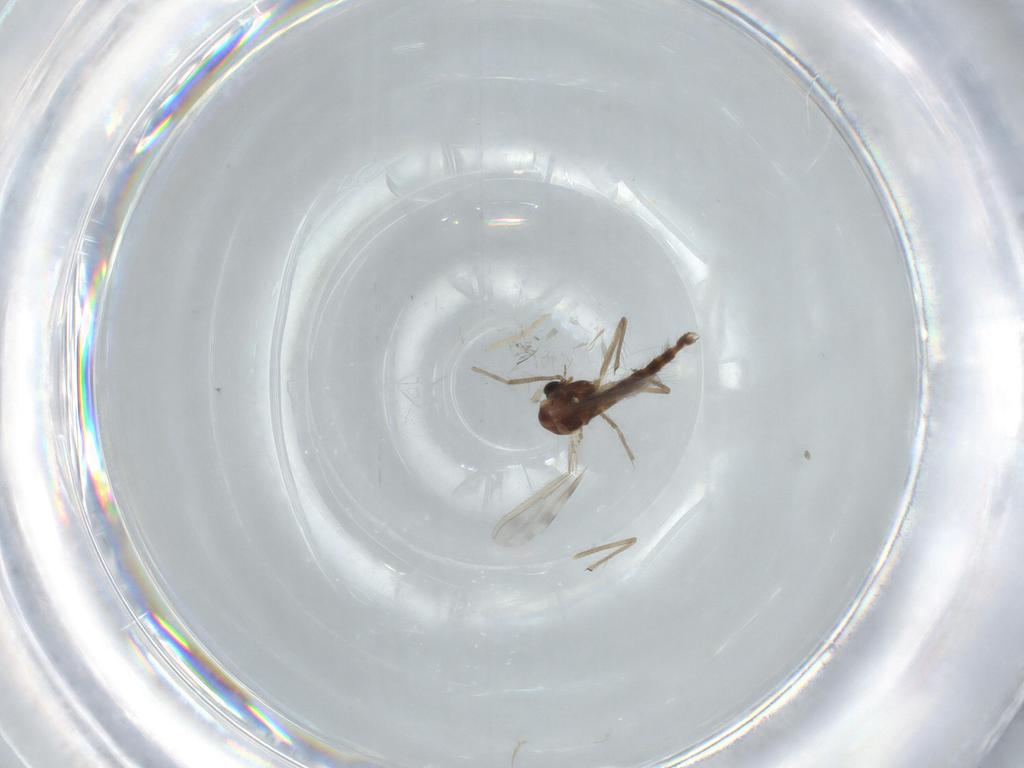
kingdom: Animalia
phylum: Arthropoda
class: Insecta
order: Diptera
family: Chironomidae
